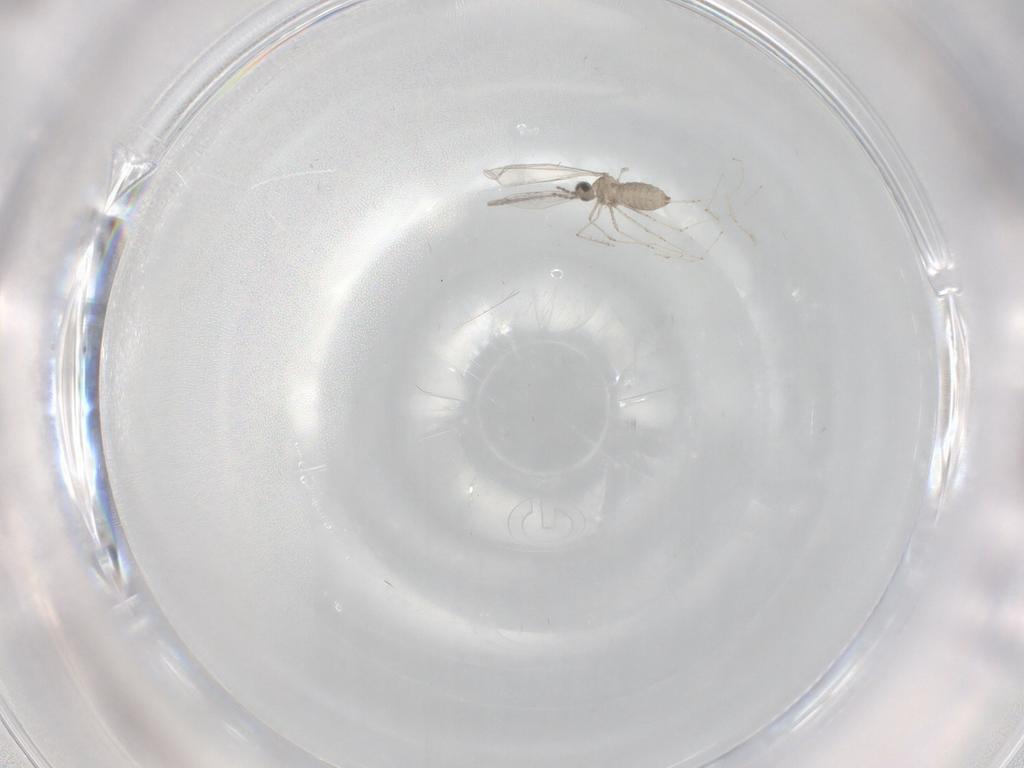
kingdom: Animalia
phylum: Arthropoda
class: Insecta
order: Diptera
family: Cecidomyiidae
